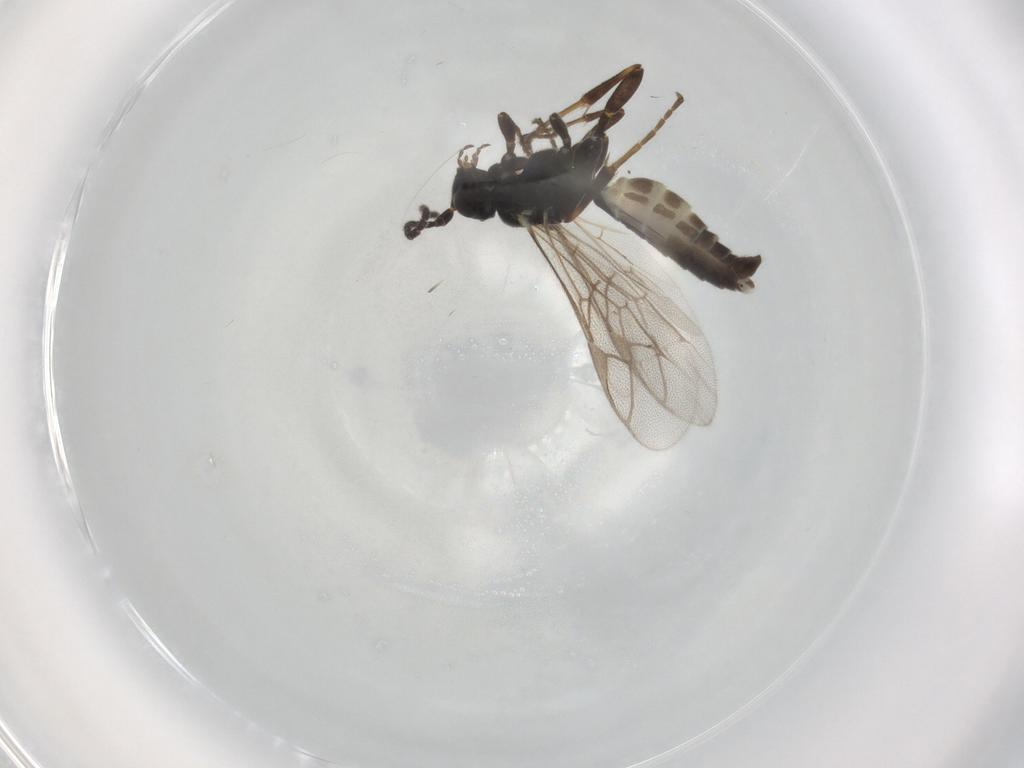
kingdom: Animalia
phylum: Arthropoda
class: Insecta
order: Hymenoptera
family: Ichneumonidae
